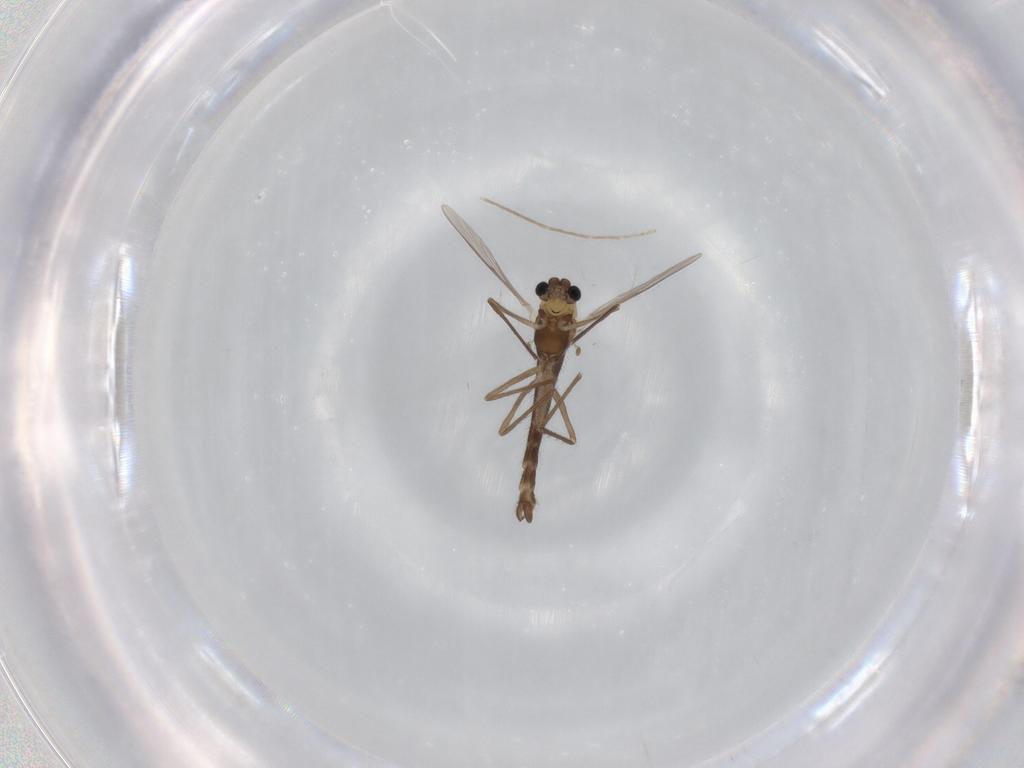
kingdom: Animalia
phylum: Arthropoda
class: Insecta
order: Diptera
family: Chironomidae
